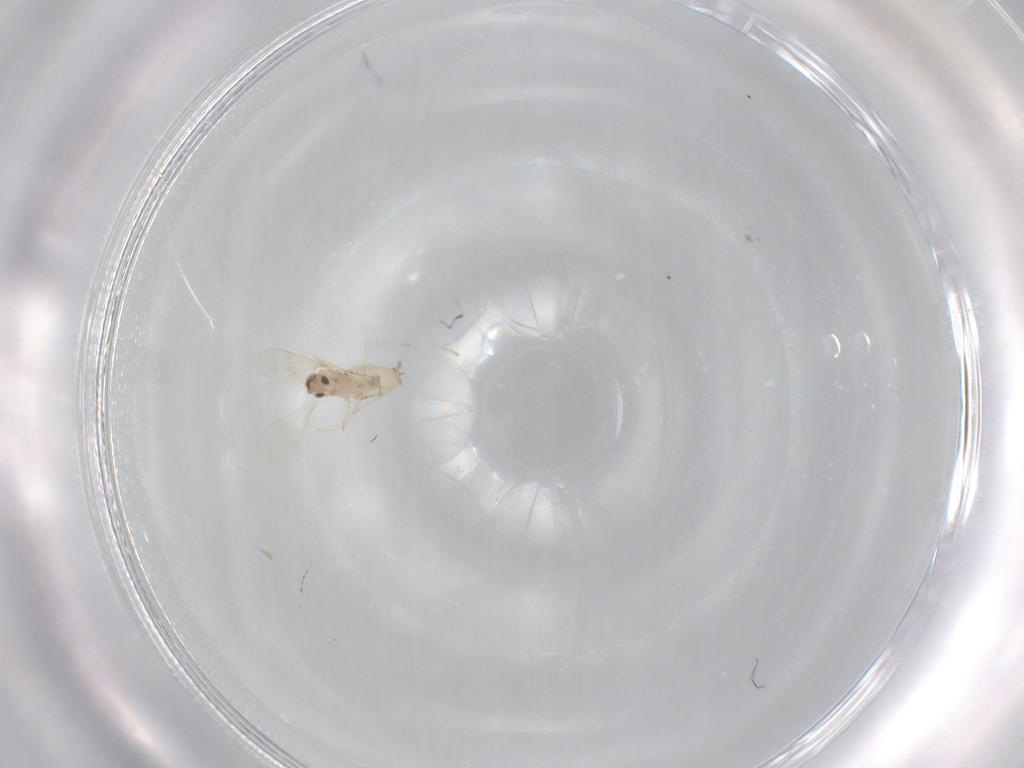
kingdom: Animalia
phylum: Arthropoda
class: Insecta
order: Diptera
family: Cecidomyiidae
